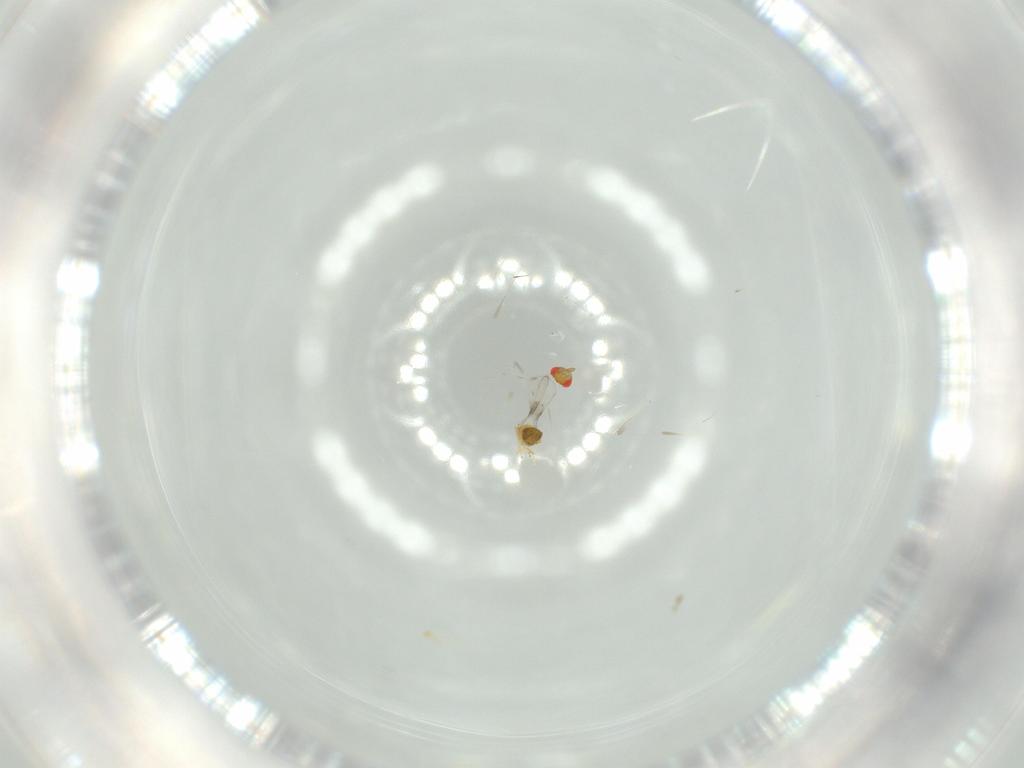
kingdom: Animalia
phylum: Arthropoda
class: Insecta
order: Hymenoptera
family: Trichogrammatidae
